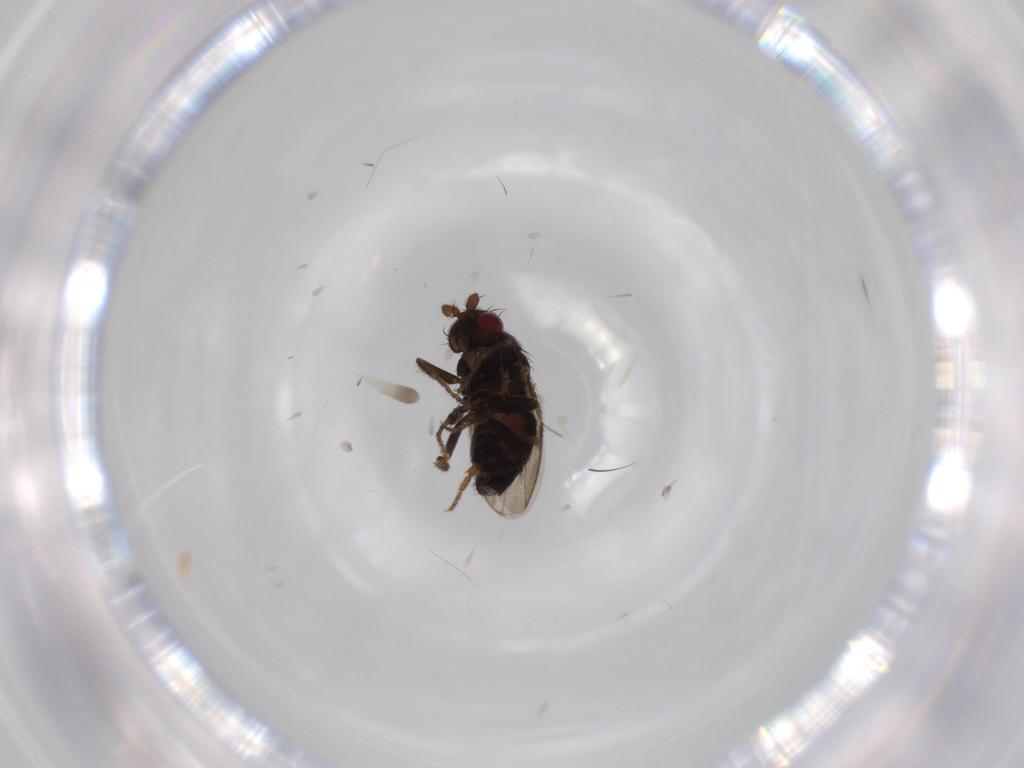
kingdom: Animalia
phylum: Arthropoda
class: Insecta
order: Diptera
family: Sphaeroceridae
